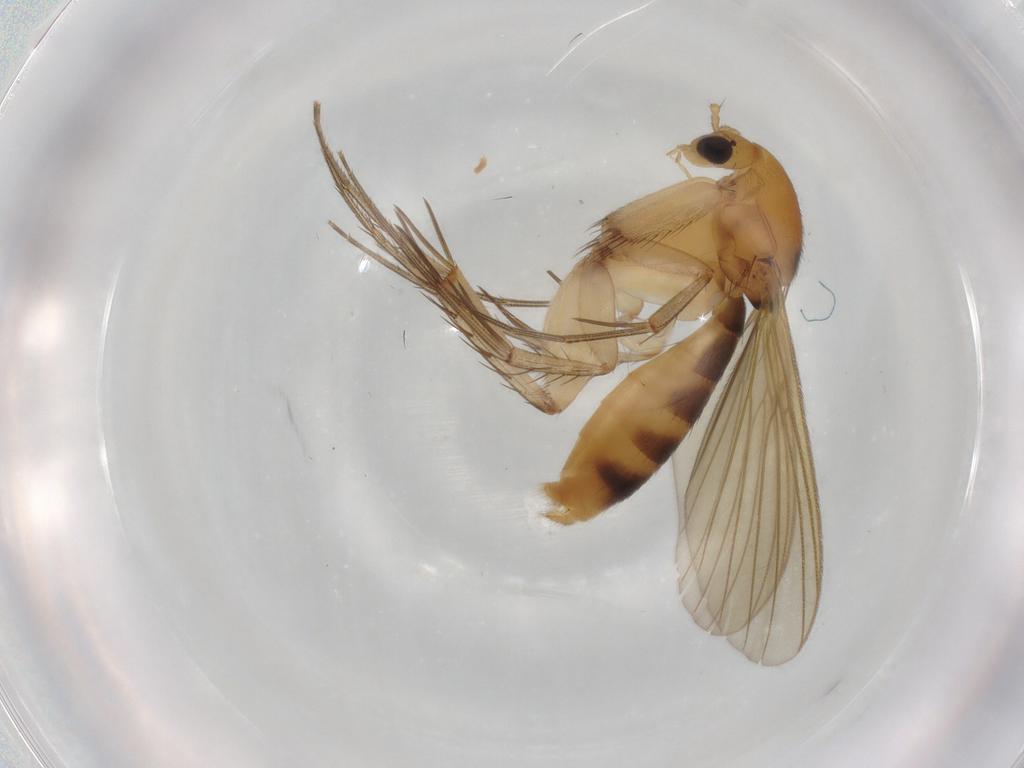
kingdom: Animalia
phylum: Arthropoda
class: Insecta
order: Diptera
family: Mycetophilidae
